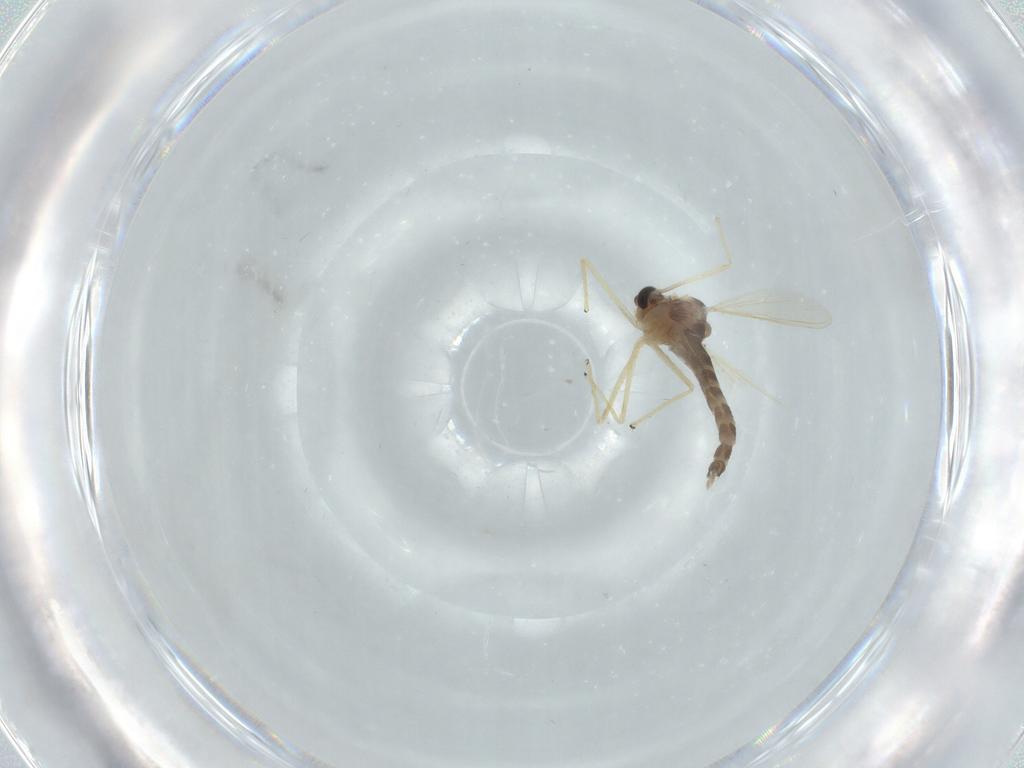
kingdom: Animalia
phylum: Arthropoda
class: Insecta
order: Diptera
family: Chironomidae
